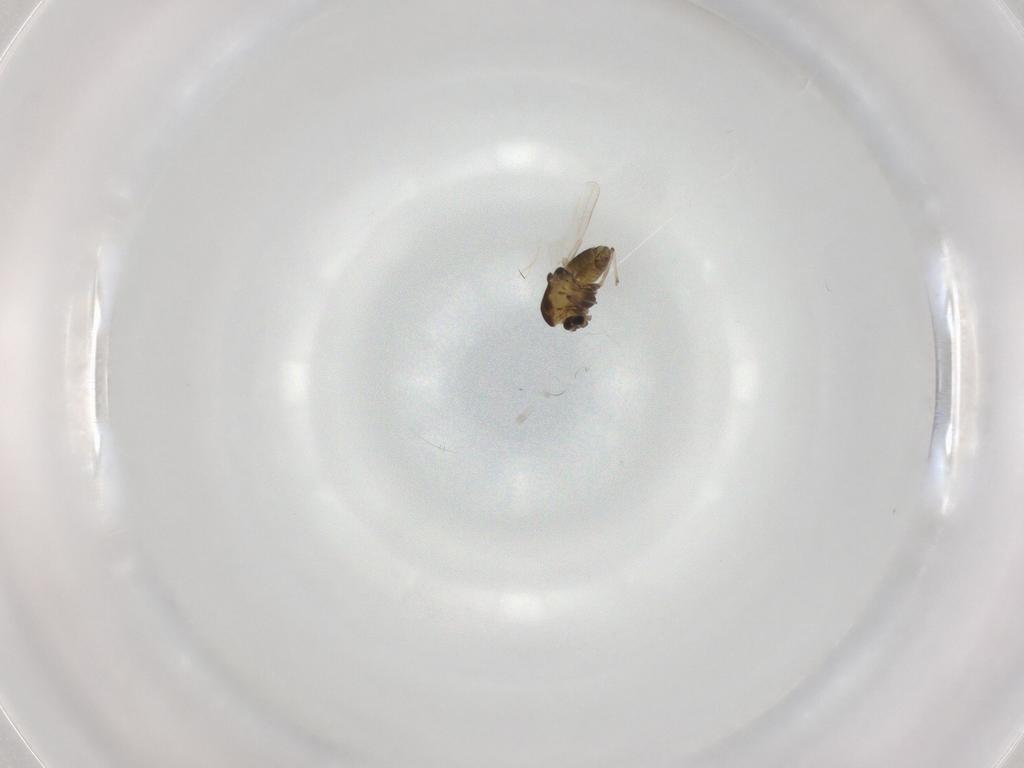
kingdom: Animalia
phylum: Arthropoda
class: Insecta
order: Diptera
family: Chironomidae
